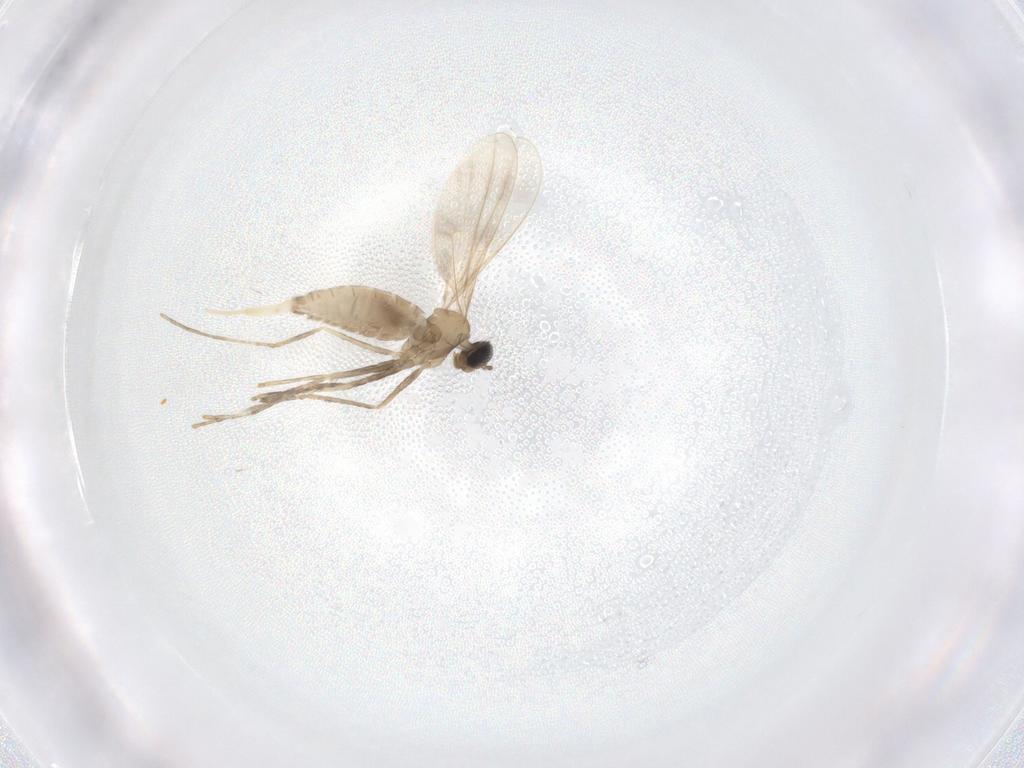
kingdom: Animalia
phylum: Arthropoda
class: Insecta
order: Diptera
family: Cecidomyiidae
